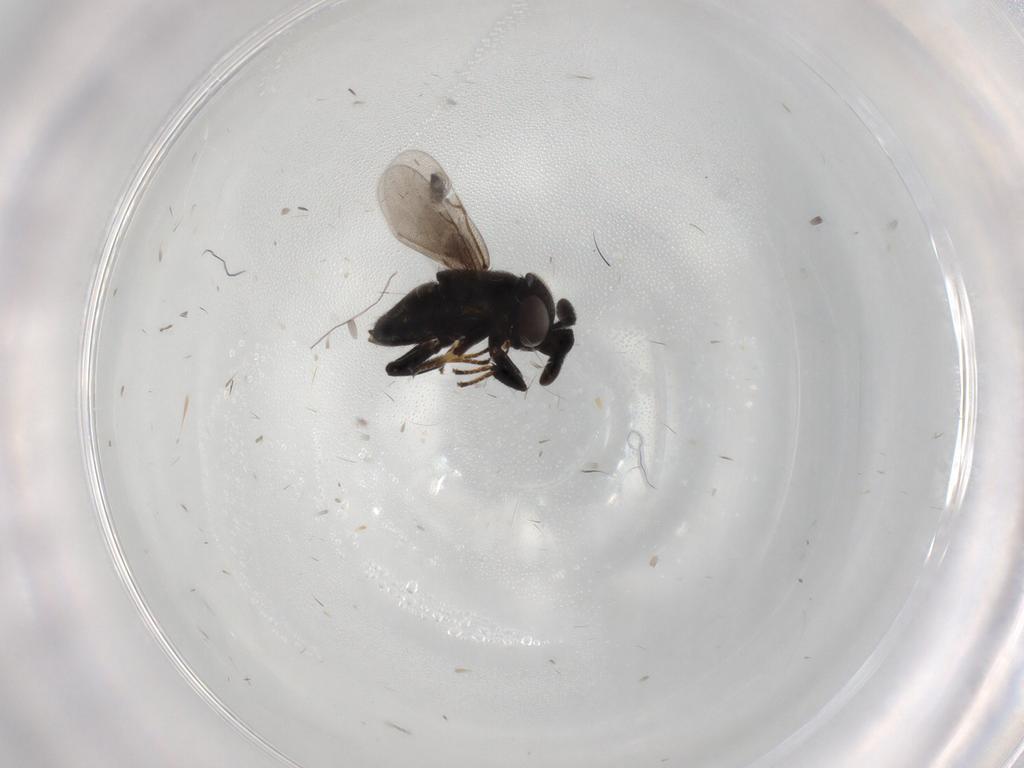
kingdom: Animalia
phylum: Arthropoda
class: Insecta
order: Hymenoptera
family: Encyrtidae
